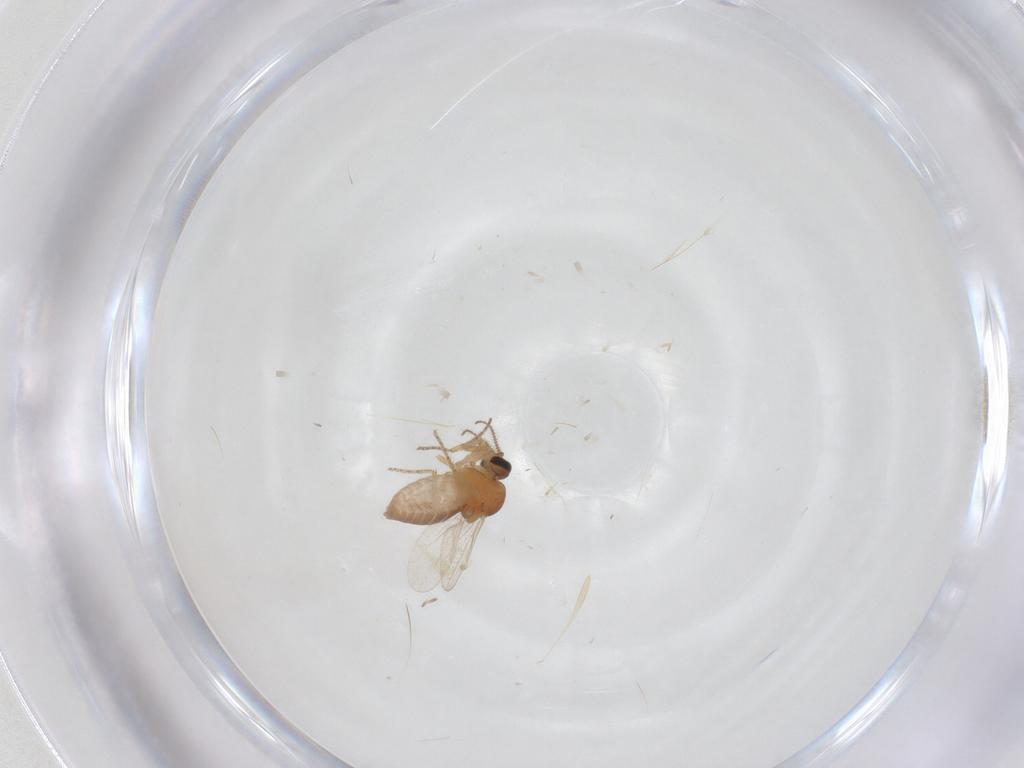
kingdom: Animalia
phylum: Arthropoda
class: Insecta
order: Diptera
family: Ceratopogonidae
